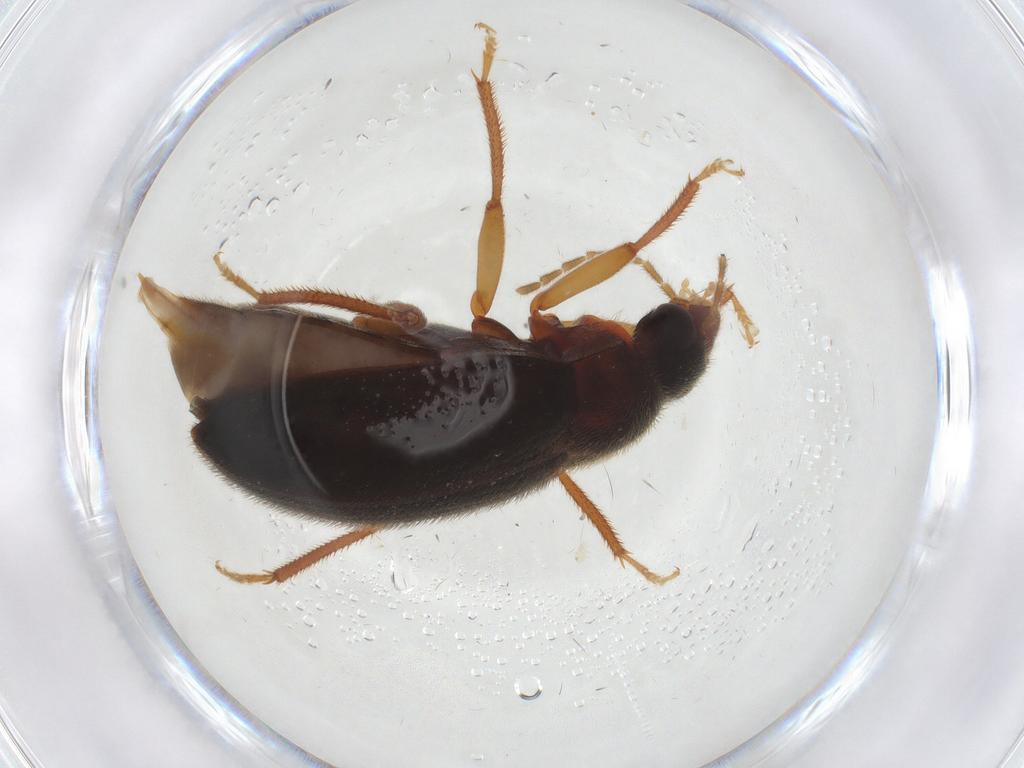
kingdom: Animalia
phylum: Arthropoda
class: Insecta
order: Coleoptera
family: Ptilodactylidae
